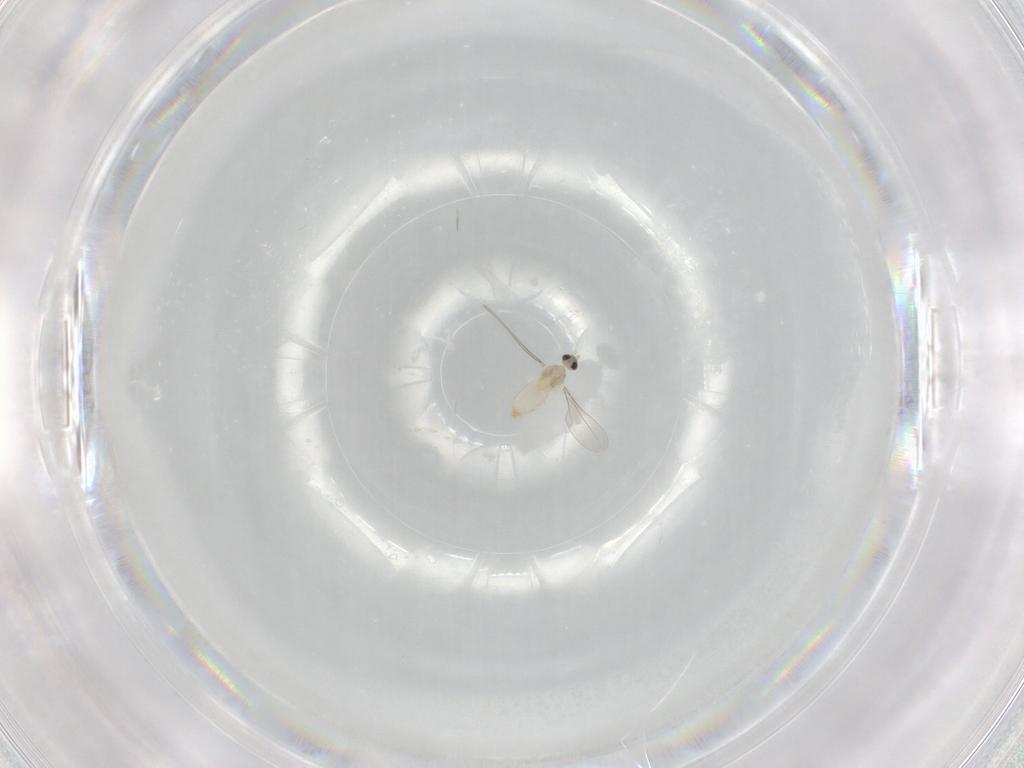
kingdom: Animalia
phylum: Arthropoda
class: Insecta
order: Diptera
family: Cecidomyiidae
